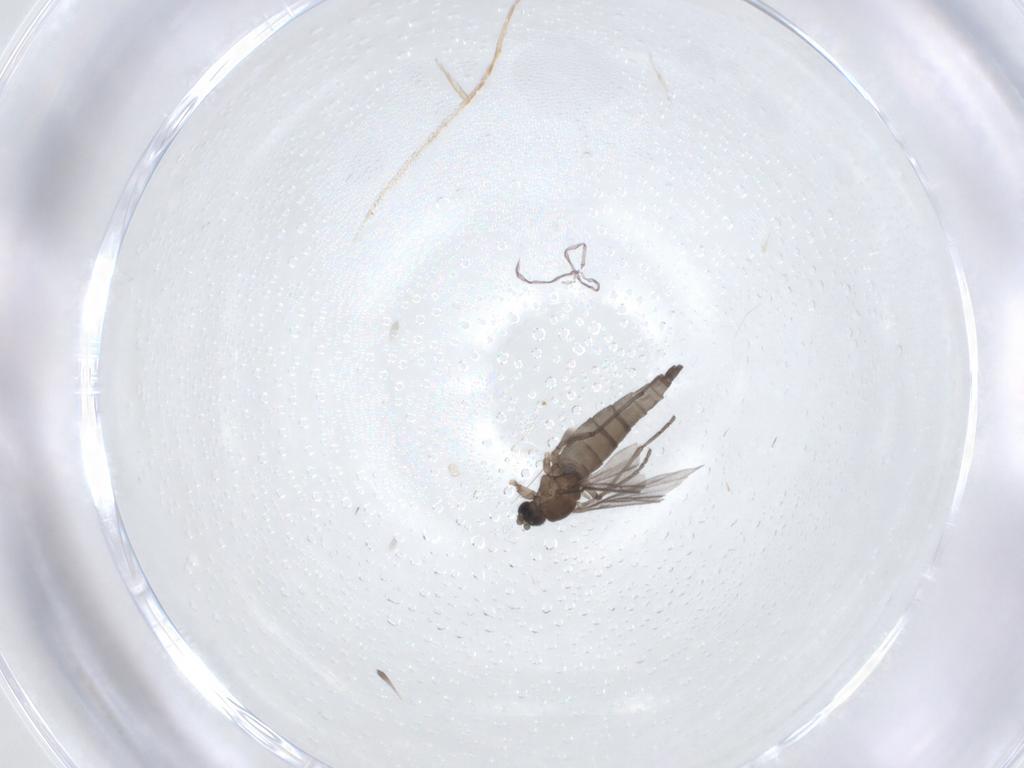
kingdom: Animalia
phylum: Arthropoda
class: Insecta
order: Diptera
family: Sciaridae
